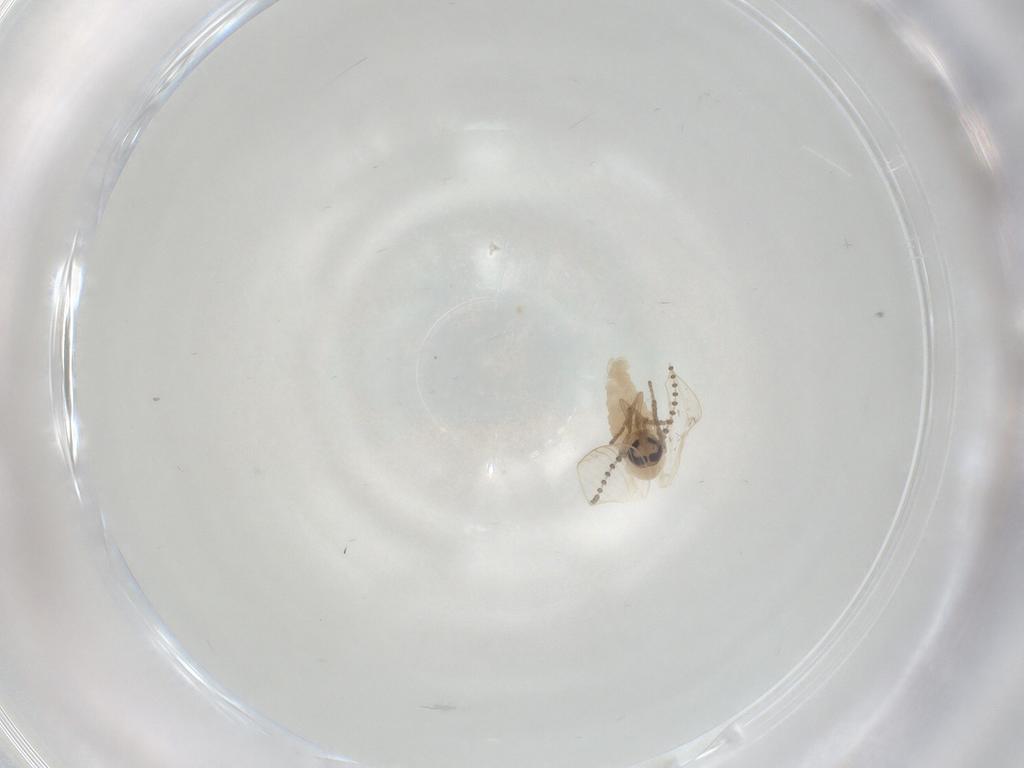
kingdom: Animalia
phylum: Arthropoda
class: Insecta
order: Diptera
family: Psychodidae
